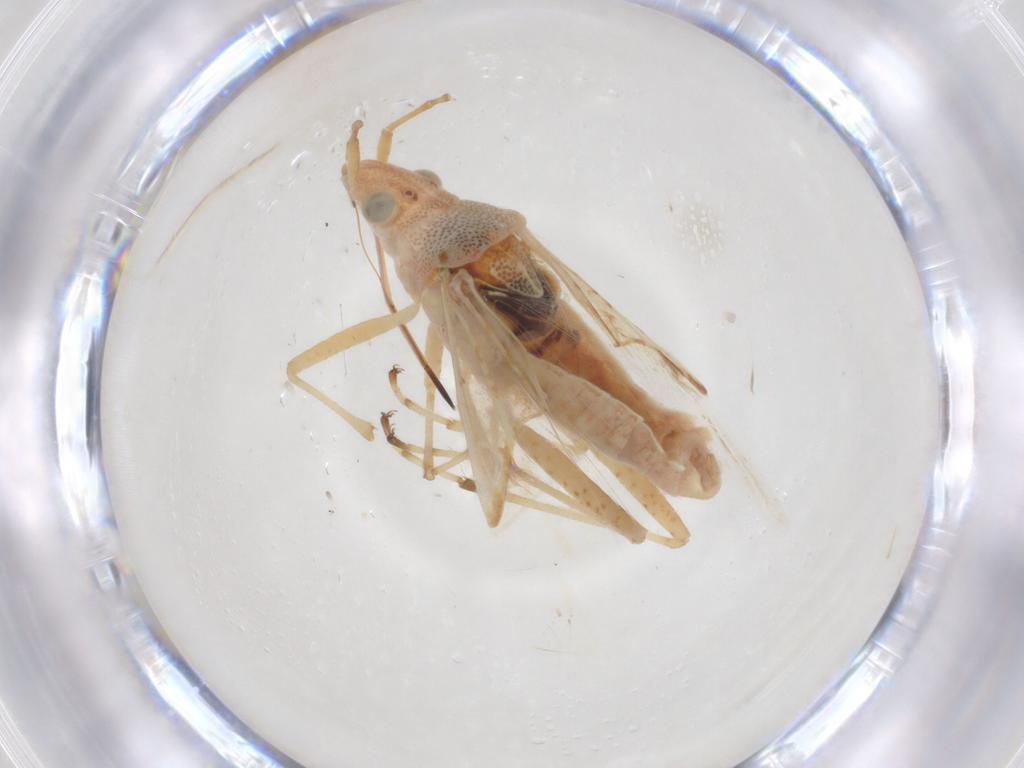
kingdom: Animalia
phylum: Arthropoda
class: Insecta
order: Hemiptera
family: Lygaeidae
